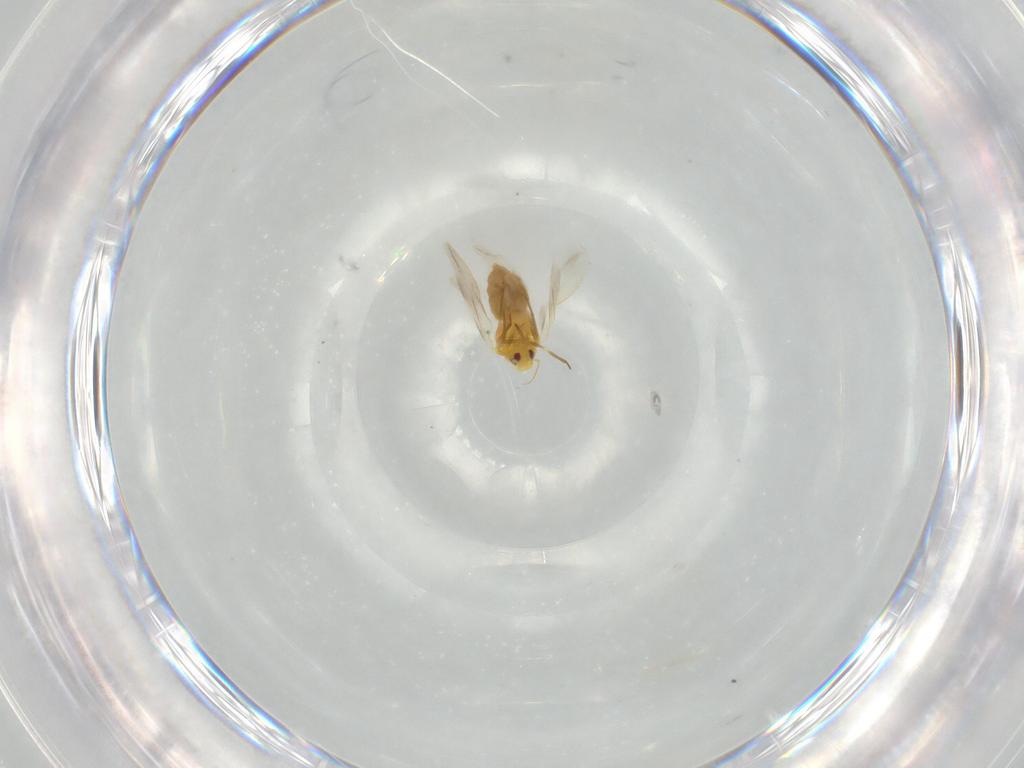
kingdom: Animalia
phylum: Arthropoda
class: Insecta
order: Hemiptera
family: Aleyrodidae
